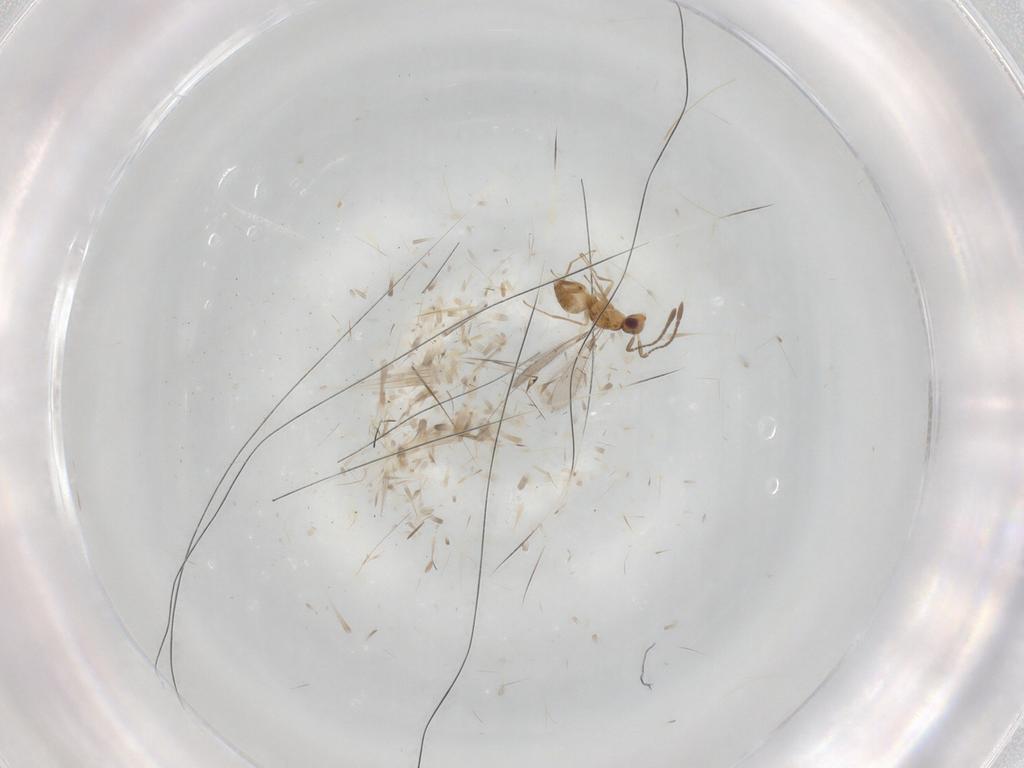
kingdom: Animalia
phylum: Arthropoda
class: Insecta
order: Hymenoptera
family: Mymaridae
